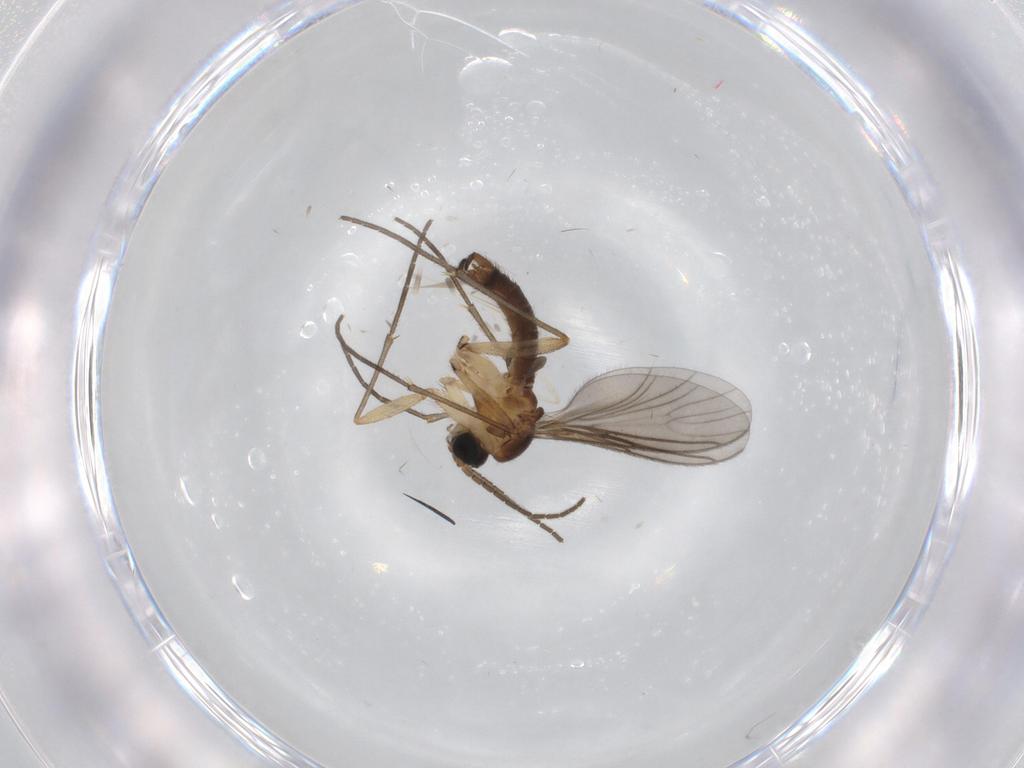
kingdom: Animalia
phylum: Arthropoda
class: Insecta
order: Diptera
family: Sciaridae
